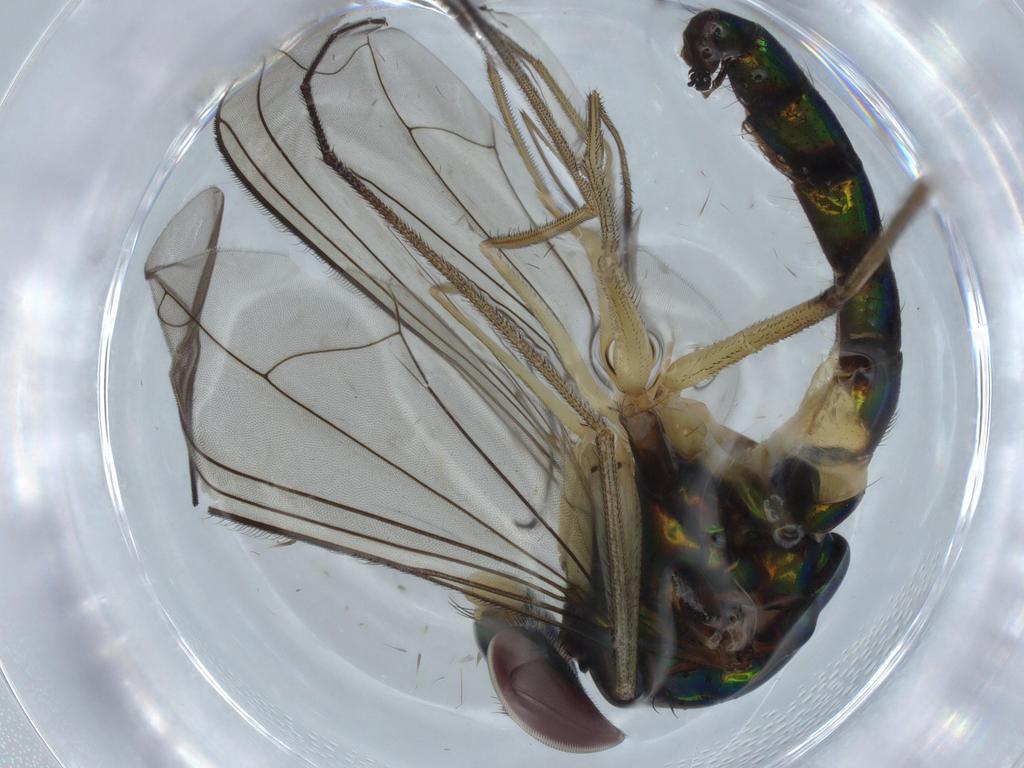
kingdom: Animalia
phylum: Arthropoda
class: Insecta
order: Diptera
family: Dolichopodidae
